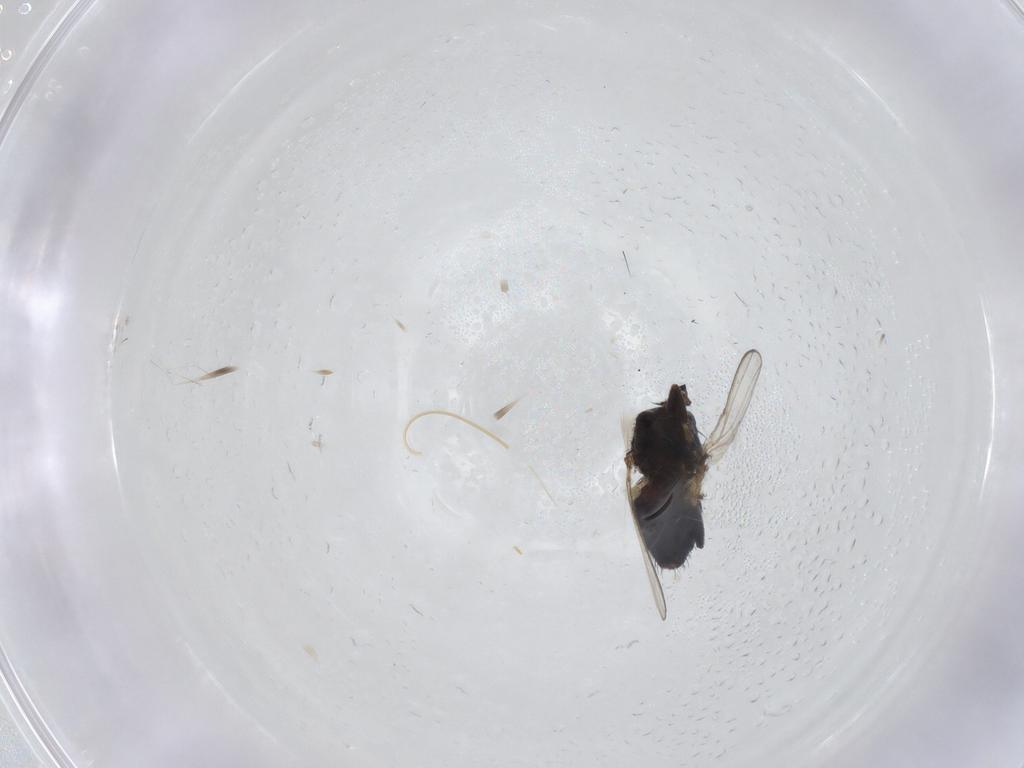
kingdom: Animalia
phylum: Arthropoda
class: Insecta
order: Diptera
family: Milichiidae
